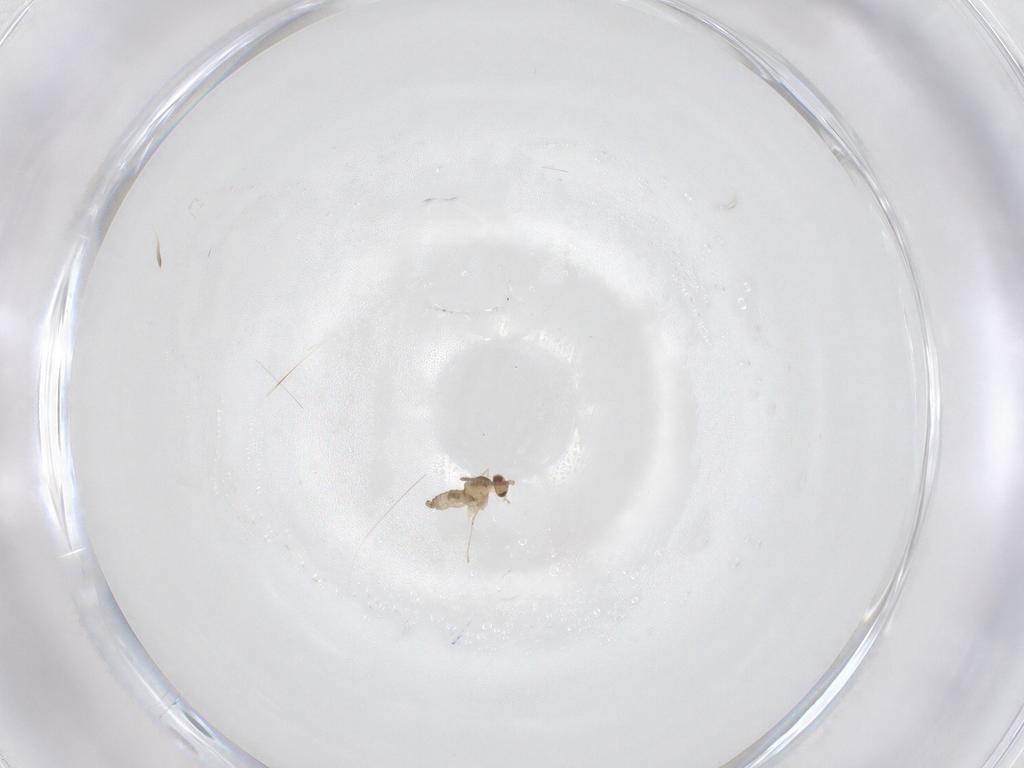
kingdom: Animalia
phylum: Arthropoda
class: Insecta
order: Diptera
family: Cecidomyiidae
